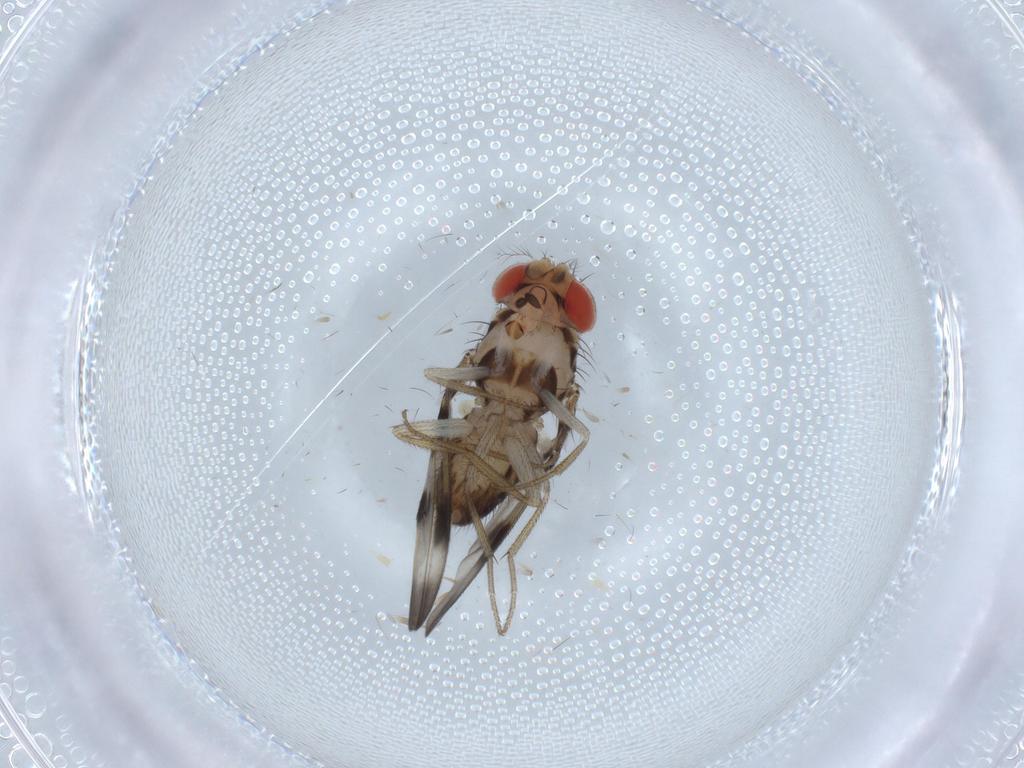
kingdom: Animalia
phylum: Arthropoda
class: Insecta
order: Diptera
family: Drosophilidae
